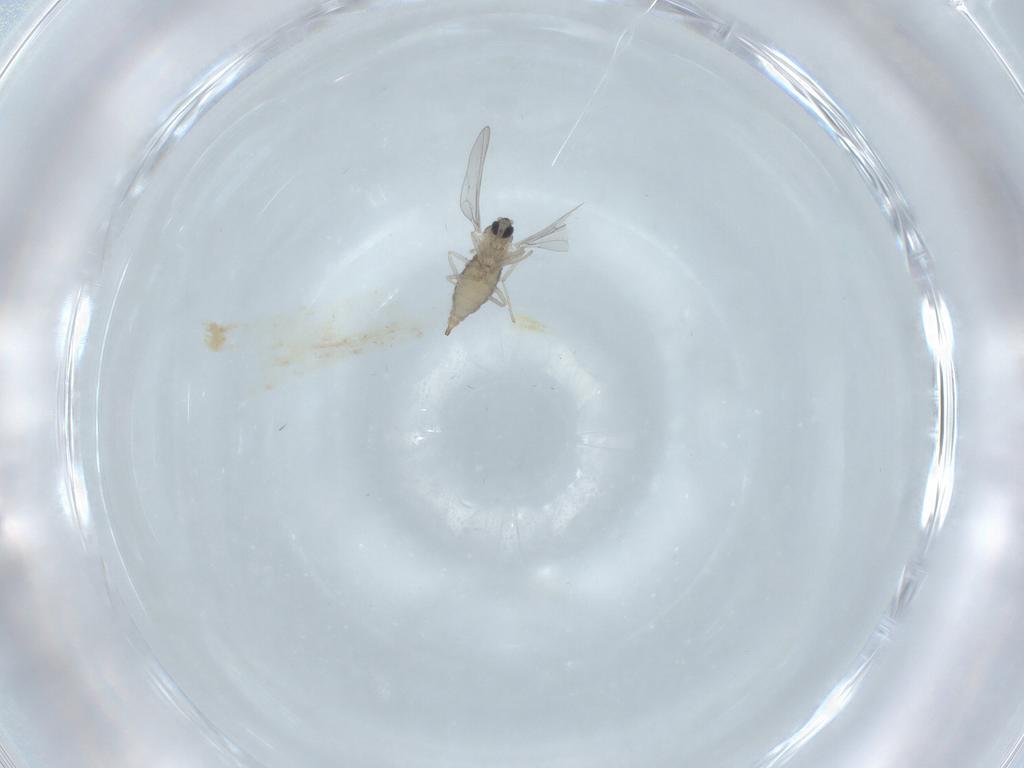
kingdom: Animalia
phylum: Arthropoda
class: Insecta
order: Diptera
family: Cecidomyiidae
